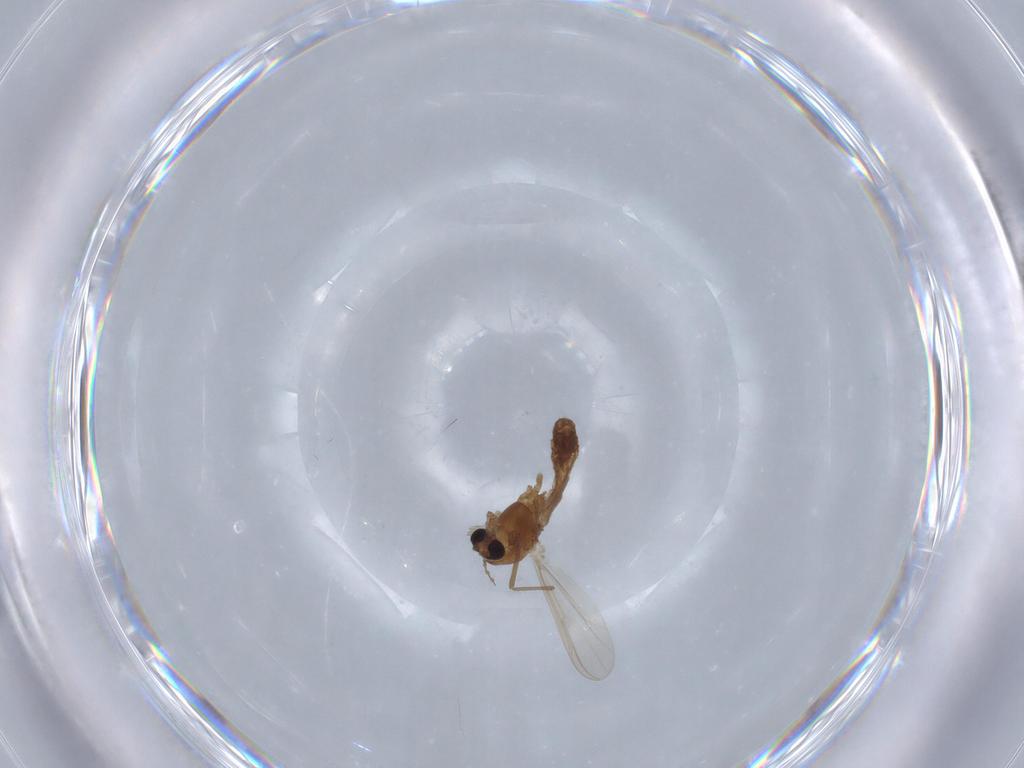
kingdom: Animalia
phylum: Arthropoda
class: Insecta
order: Diptera
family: Chironomidae
